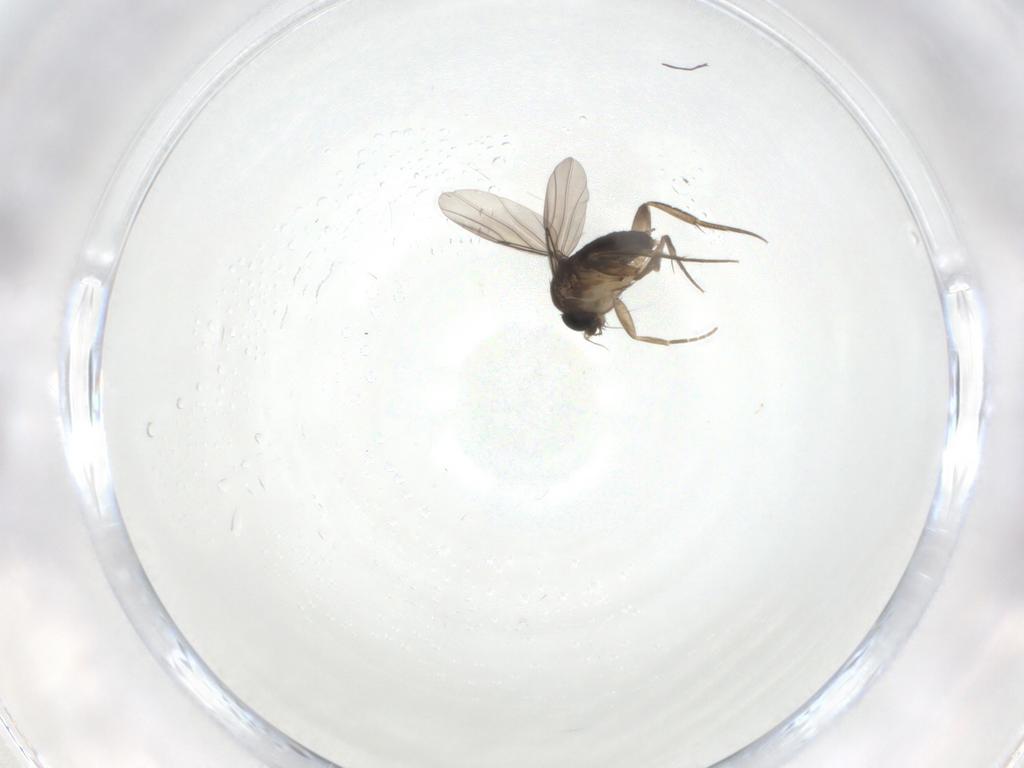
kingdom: Animalia
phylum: Arthropoda
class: Insecta
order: Diptera
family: Phoridae
